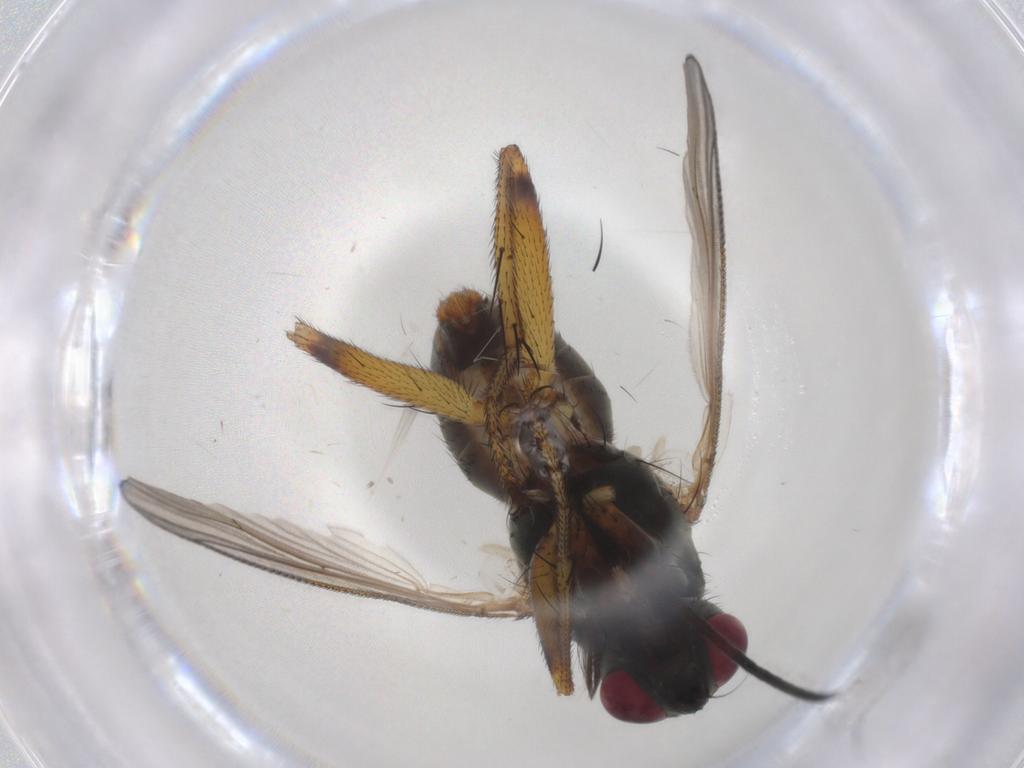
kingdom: Animalia
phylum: Arthropoda
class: Insecta
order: Diptera
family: Muscidae
